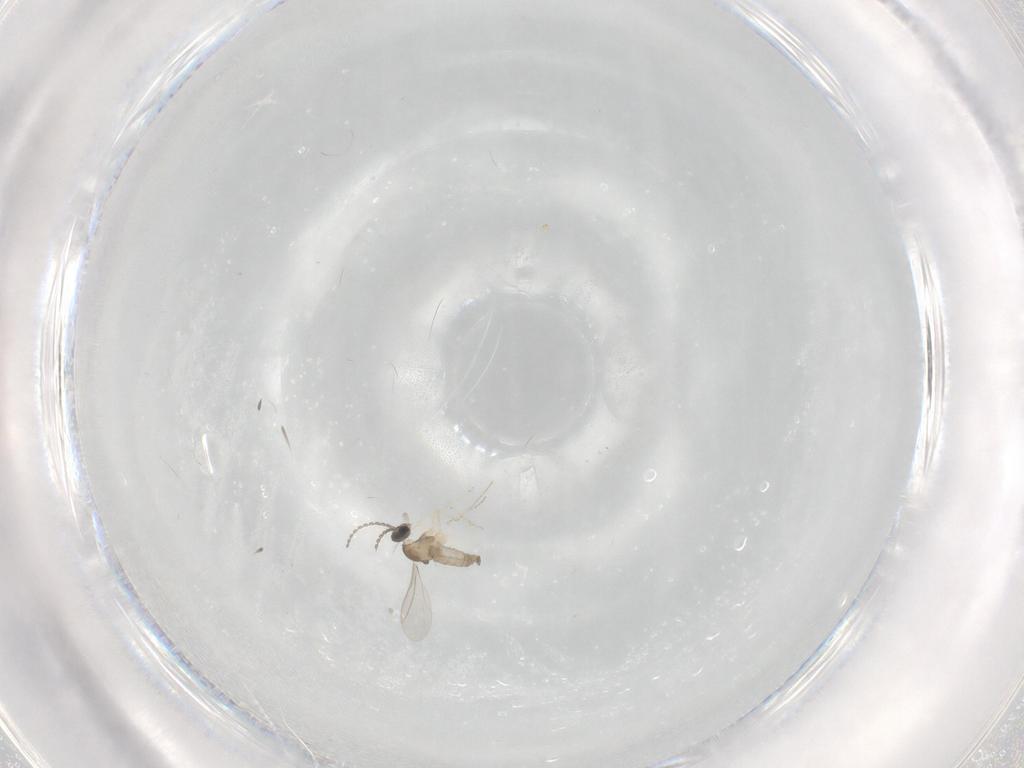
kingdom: Animalia
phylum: Arthropoda
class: Insecta
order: Diptera
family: Cecidomyiidae
